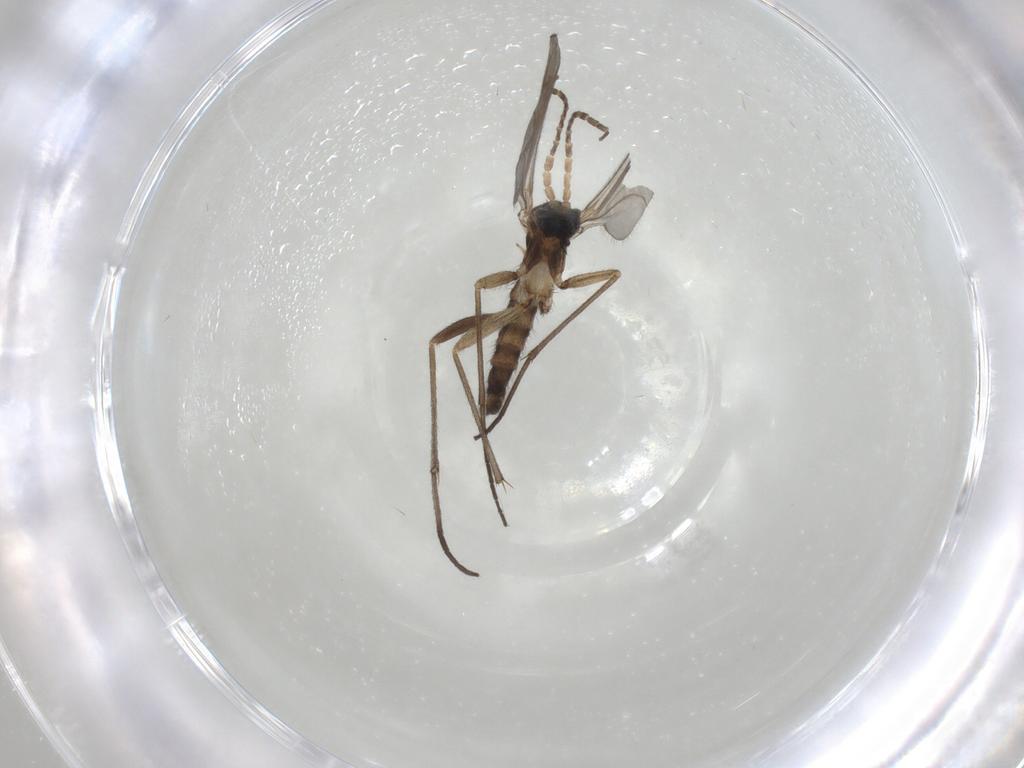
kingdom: Animalia
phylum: Arthropoda
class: Insecta
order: Diptera
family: Sciaridae
